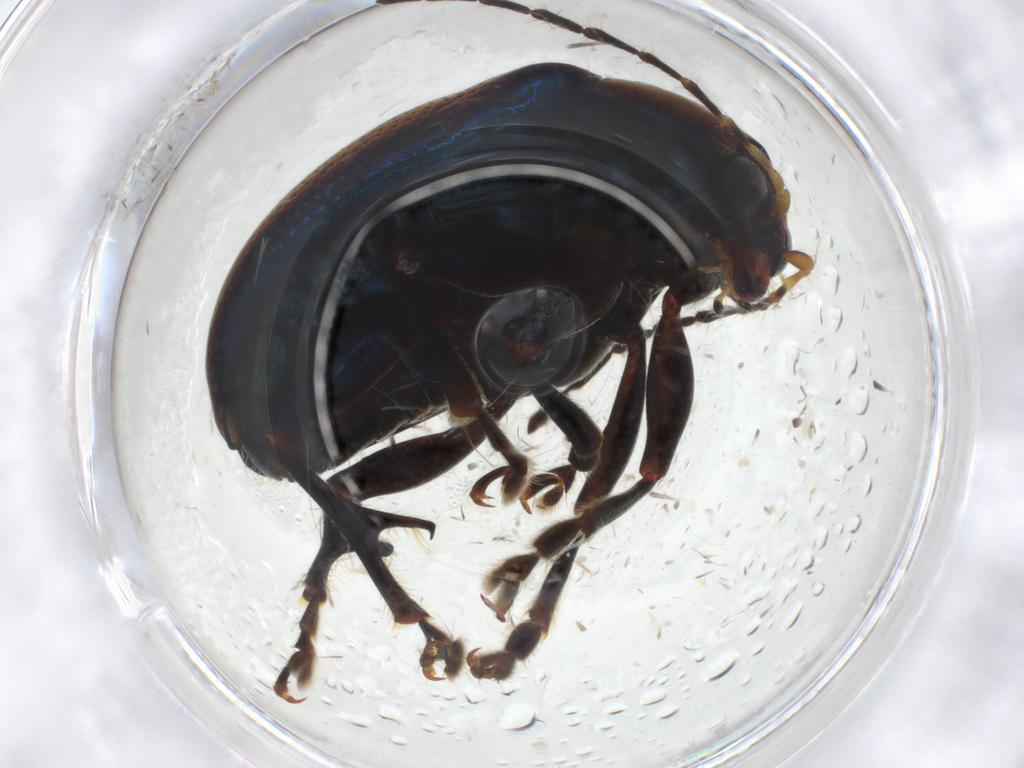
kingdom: Animalia
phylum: Arthropoda
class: Insecta
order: Coleoptera
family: Chrysomelidae
